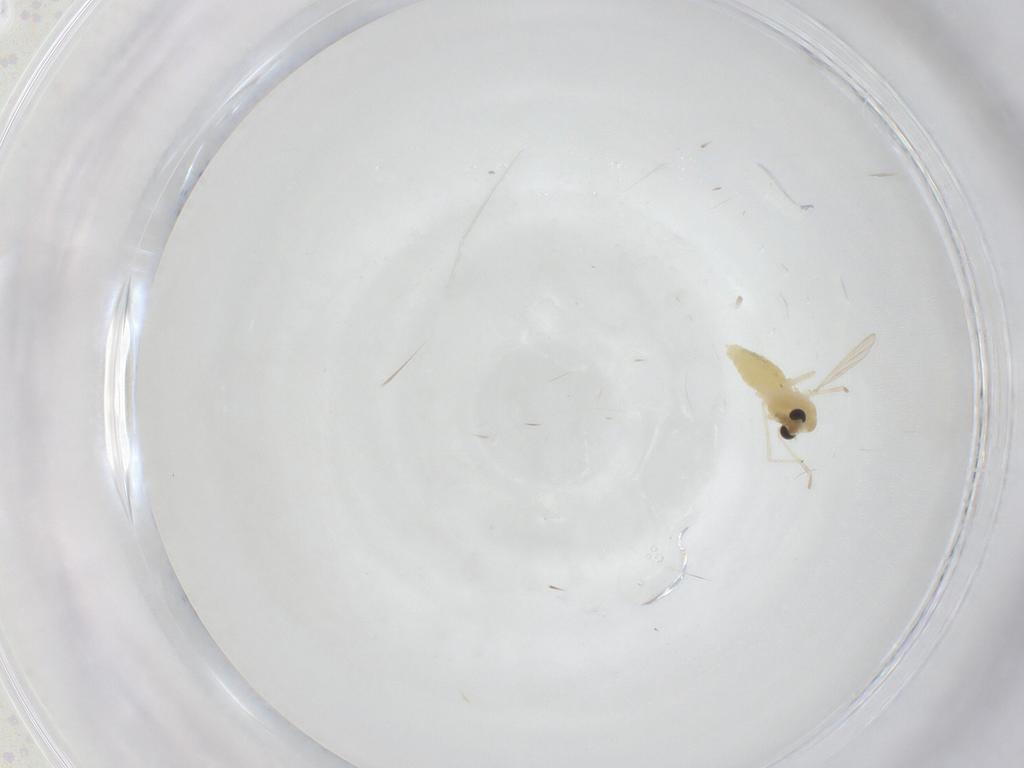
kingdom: Animalia
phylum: Arthropoda
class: Insecta
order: Diptera
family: Chironomidae
